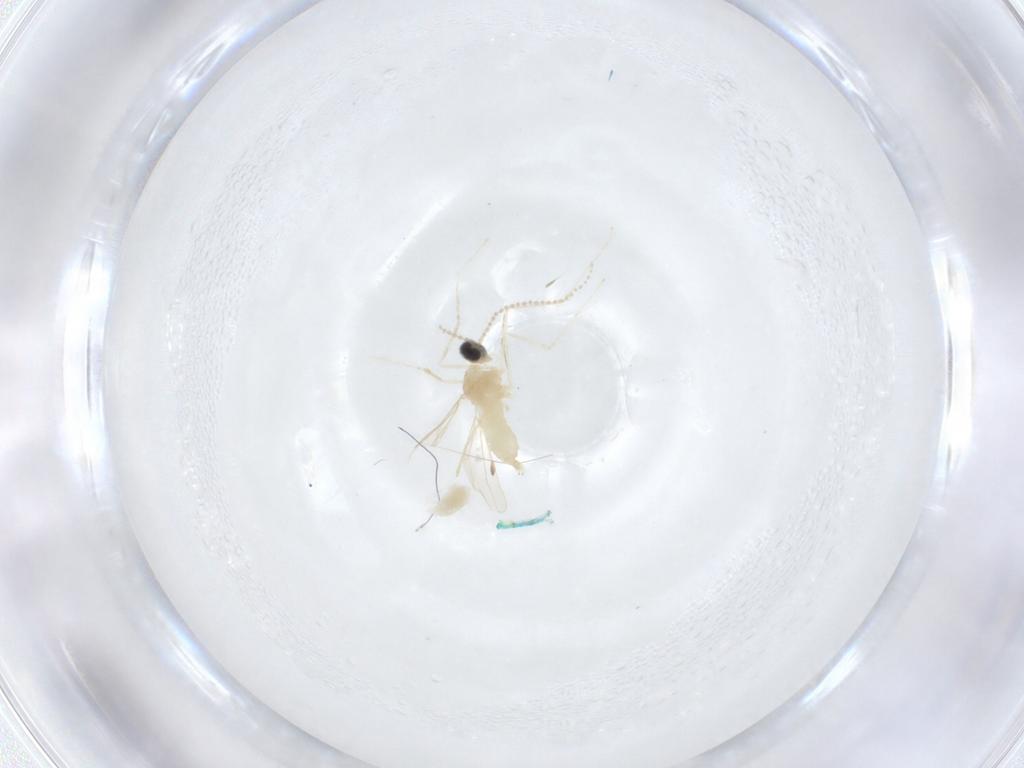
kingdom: Animalia
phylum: Arthropoda
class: Insecta
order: Diptera
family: Cecidomyiidae
